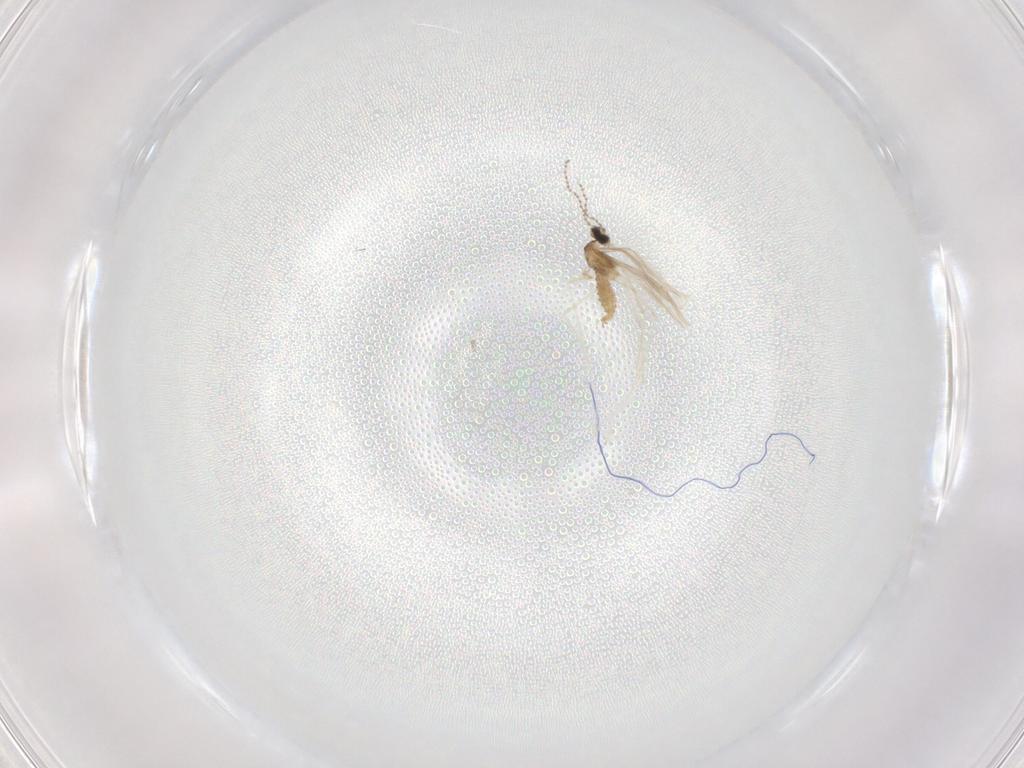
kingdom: Animalia
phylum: Arthropoda
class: Insecta
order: Diptera
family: Cecidomyiidae
